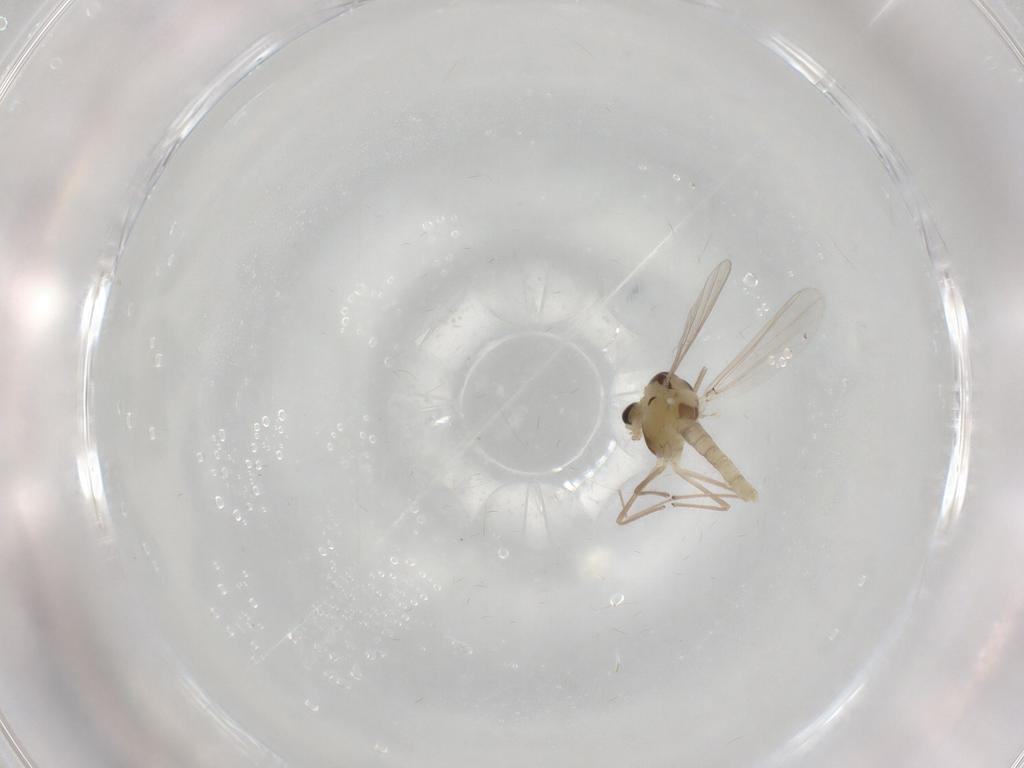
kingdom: Animalia
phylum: Arthropoda
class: Insecta
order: Diptera
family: Chironomidae
